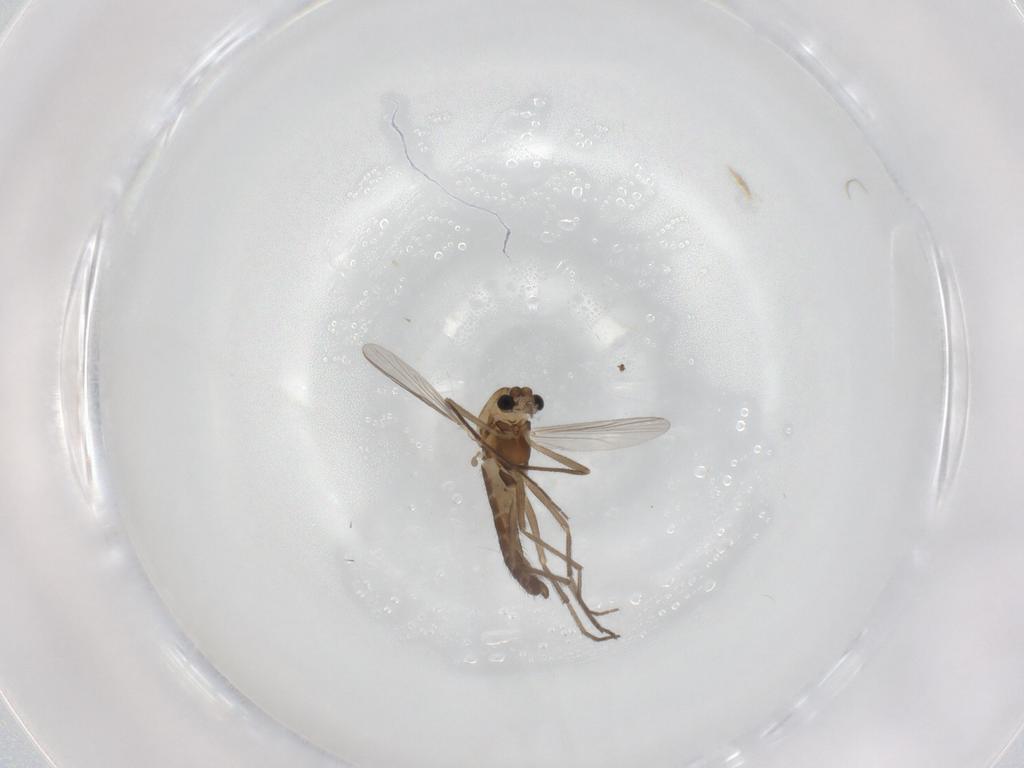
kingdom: Animalia
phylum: Arthropoda
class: Insecta
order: Diptera
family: Chironomidae
